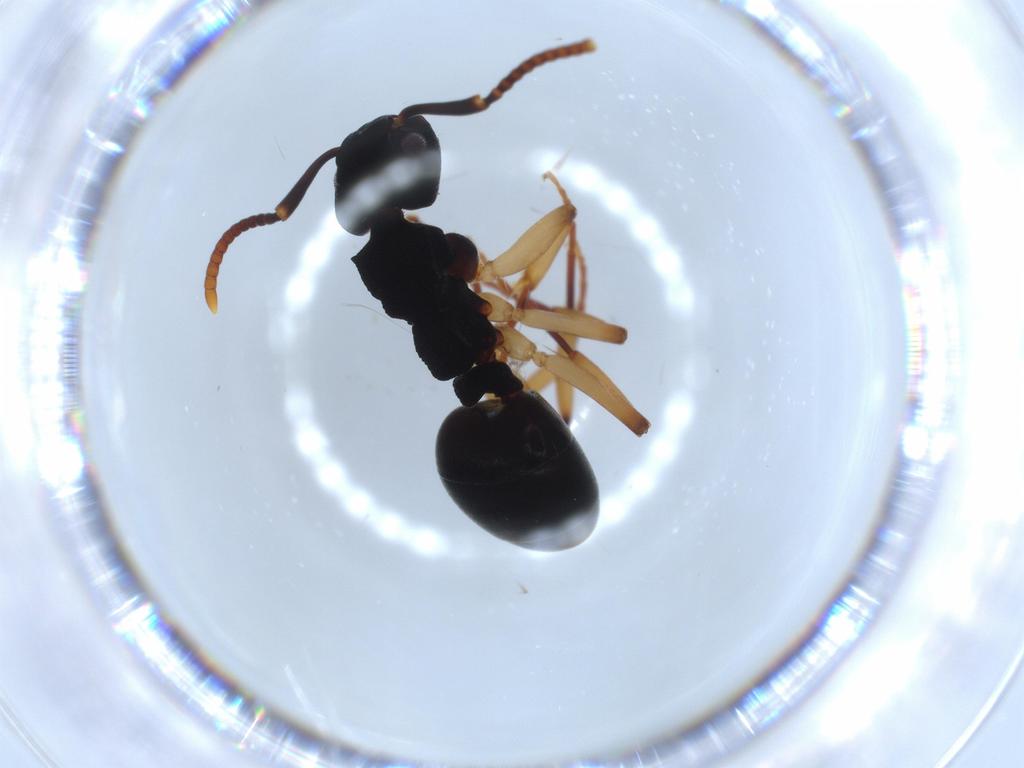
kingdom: Animalia
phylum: Arthropoda
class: Insecta
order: Hymenoptera
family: Formicidae
